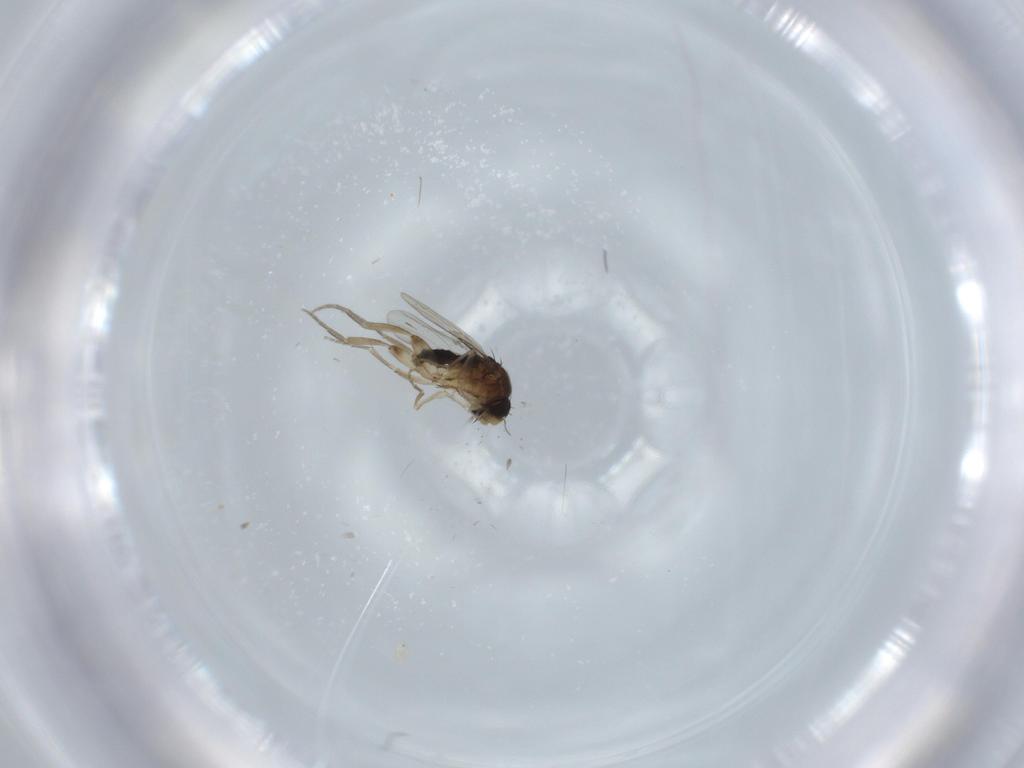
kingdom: Animalia
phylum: Arthropoda
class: Insecta
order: Diptera
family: Phoridae
